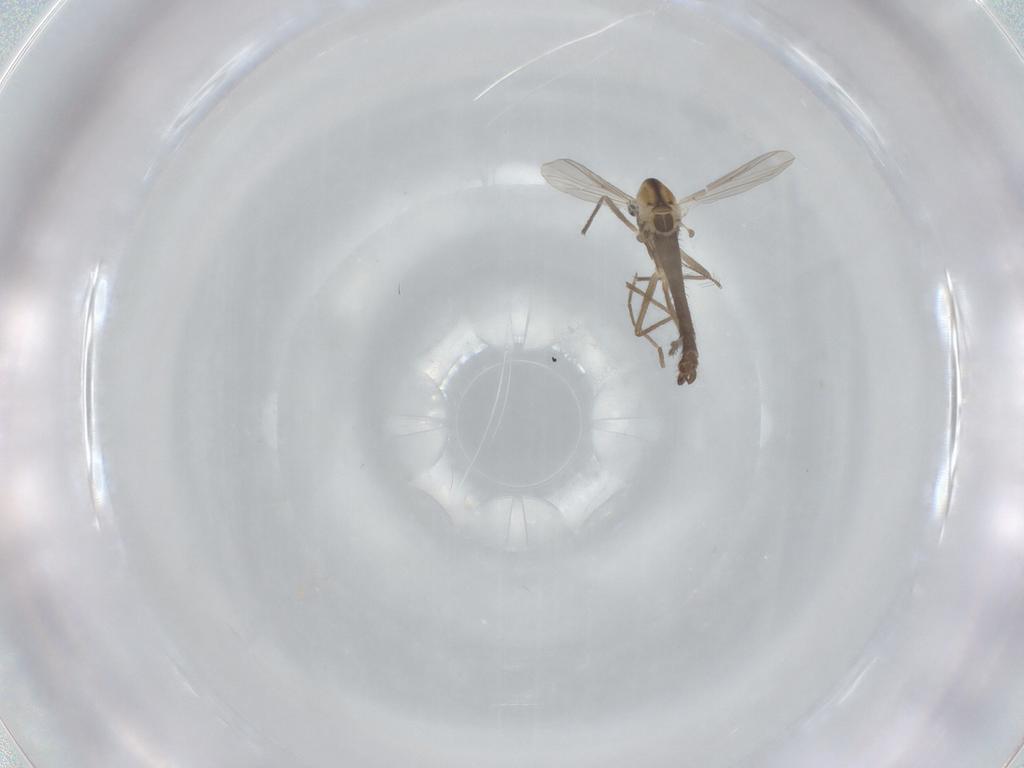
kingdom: Animalia
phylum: Arthropoda
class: Insecta
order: Diptera
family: Chironomidae
